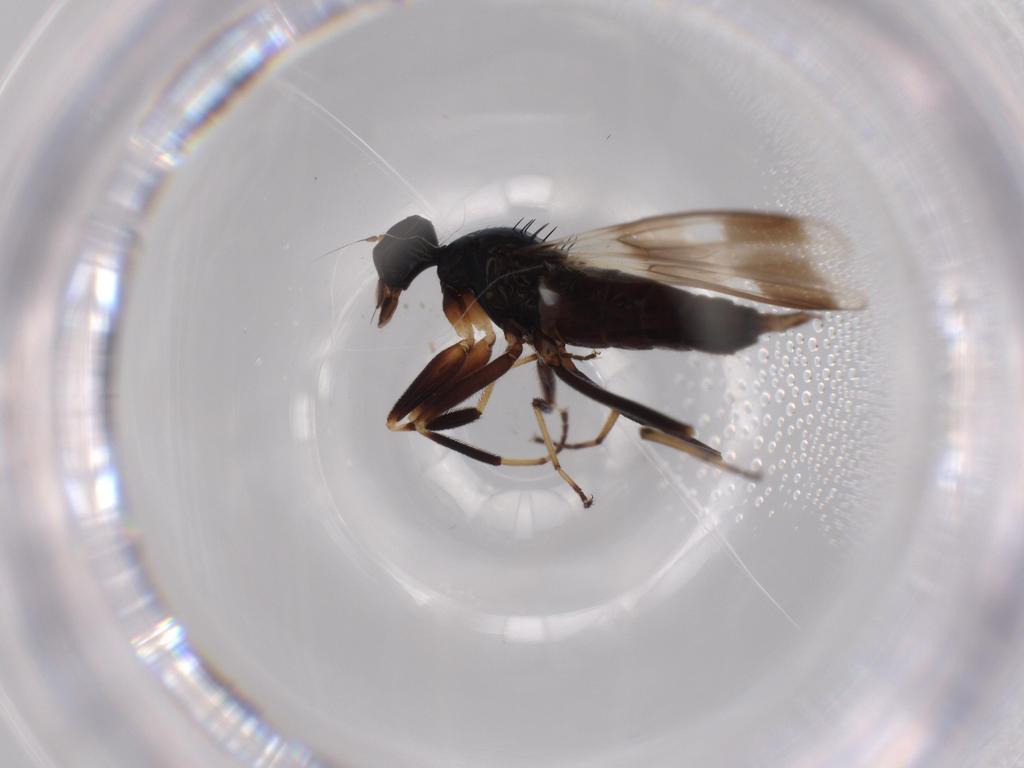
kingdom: Animalia
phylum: Arthropoda
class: Insecta
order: Diptera
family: Hybotidae
